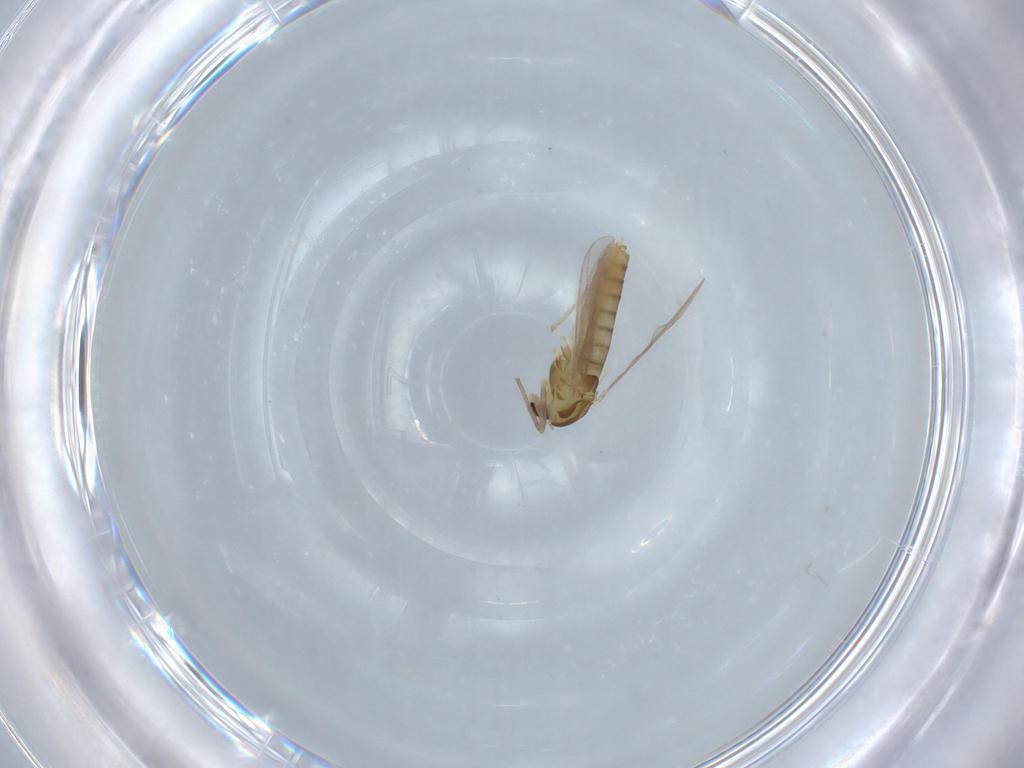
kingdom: Animalia
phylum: Arthropoda
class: Insecta
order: Diptera
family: Chironomidae
